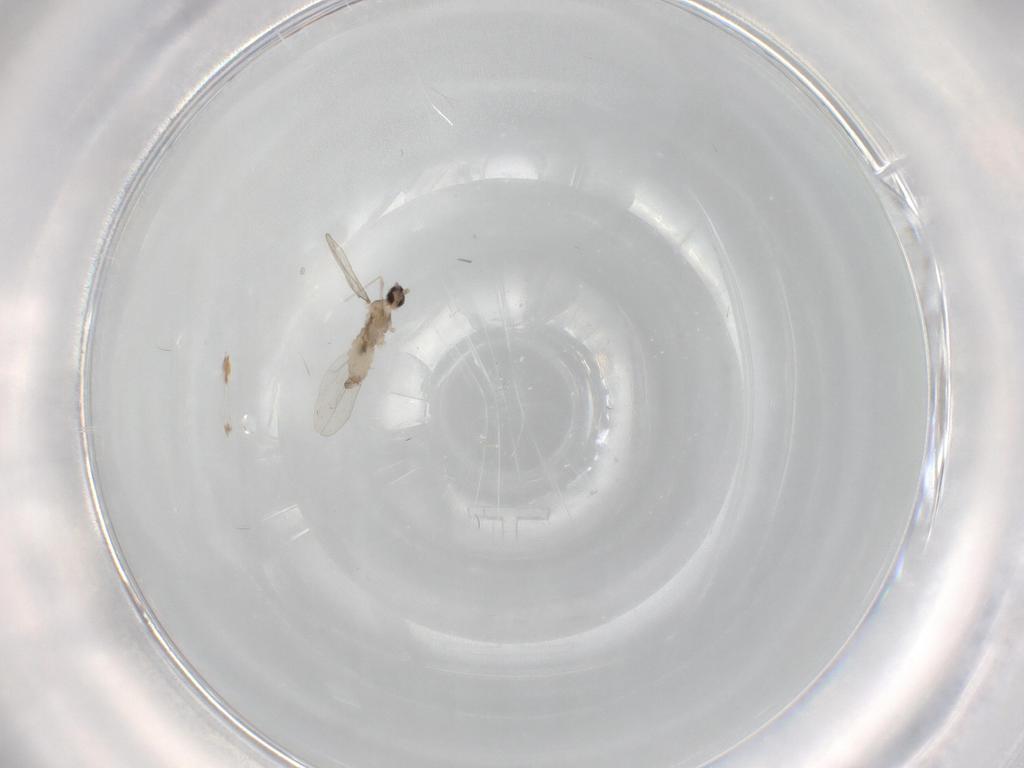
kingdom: Animalia
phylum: Arthropoda
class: Insecta
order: Diptera
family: Cecidomyiidae
